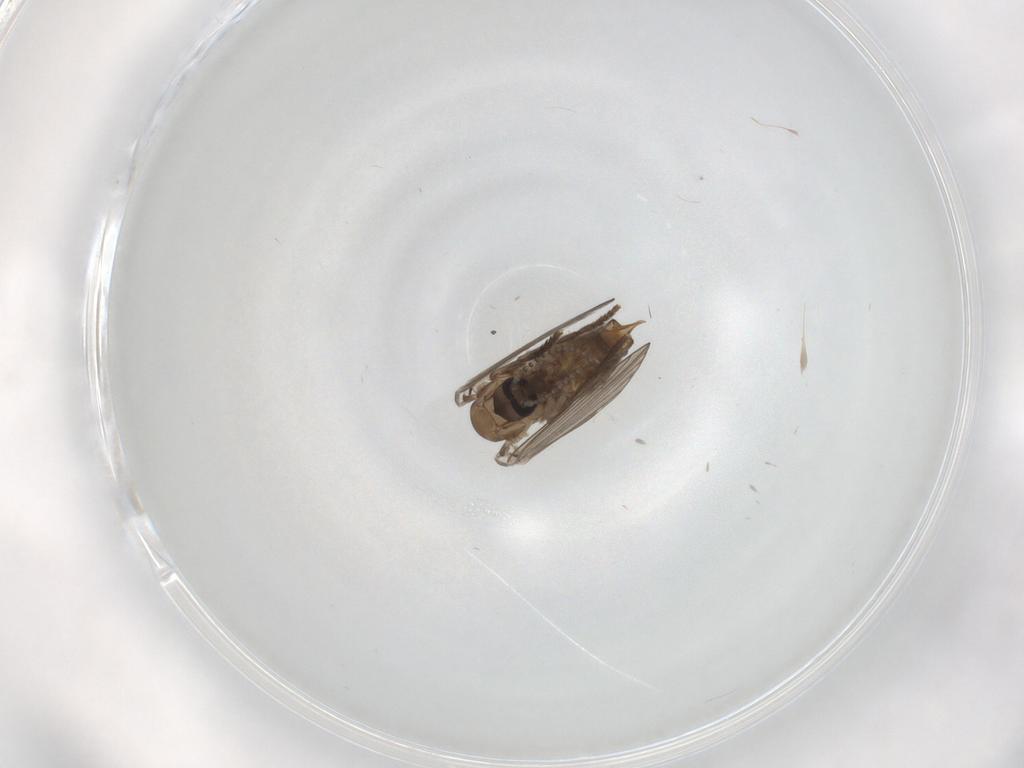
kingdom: Animalia
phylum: Arthropoda
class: Insecta
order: Diptera
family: Psychodidae
